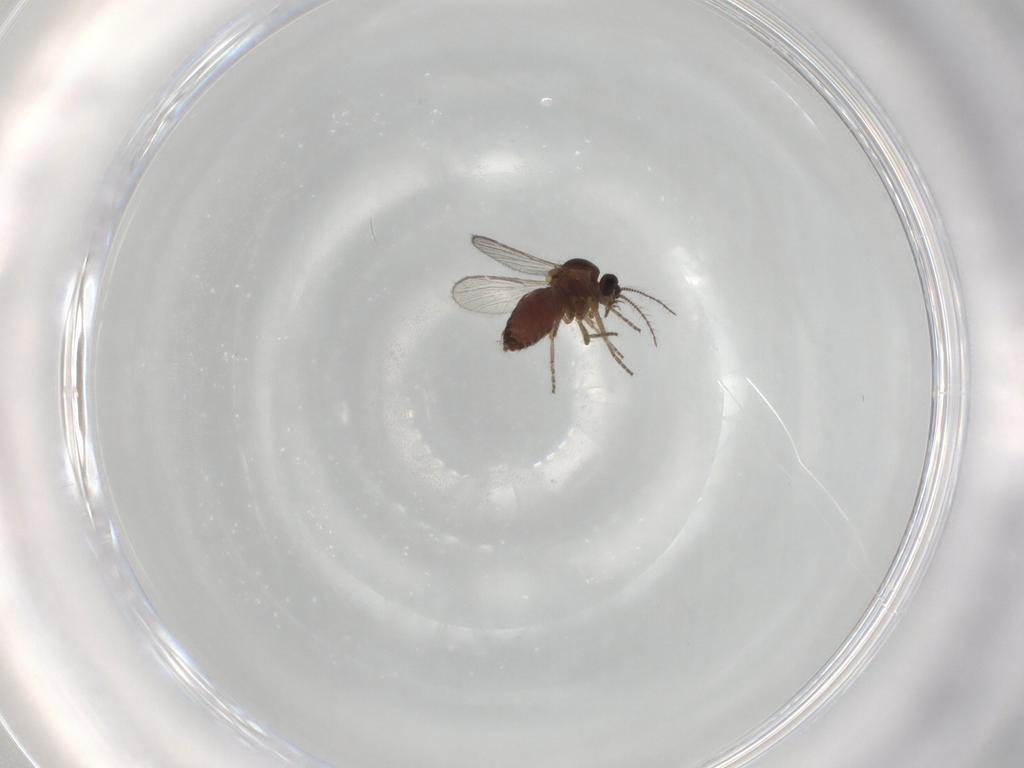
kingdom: Animalia
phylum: Arthropoda
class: Insecta
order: Diptera
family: Ceratopogonidae
